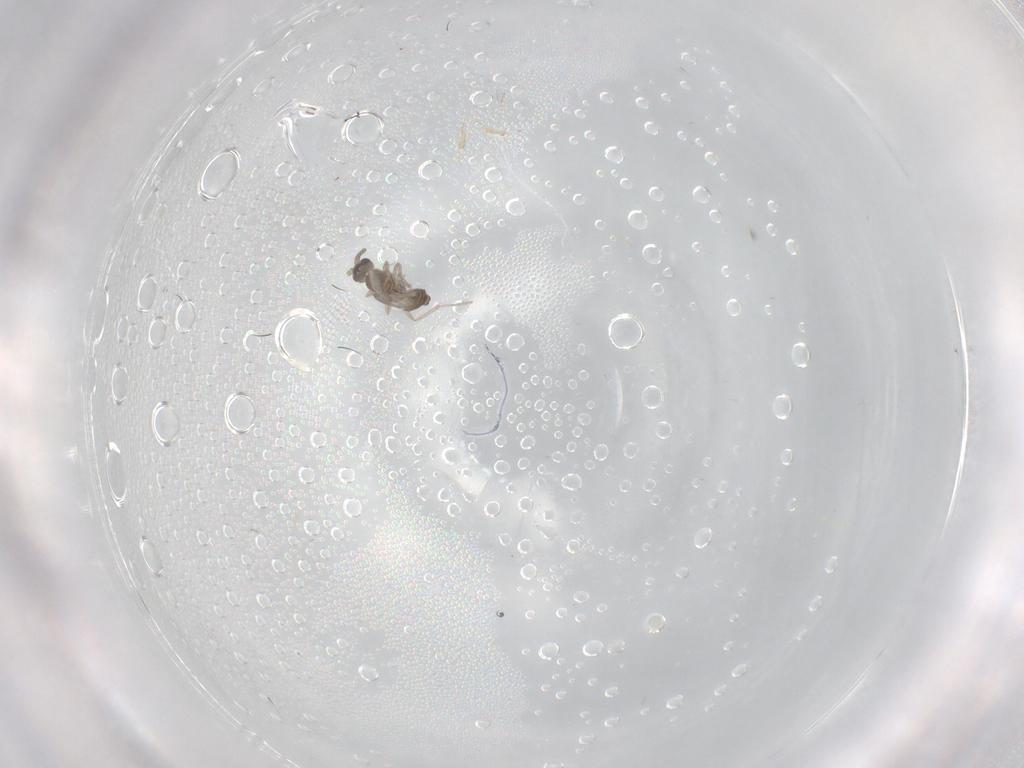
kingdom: Animalia
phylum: Arthropoda
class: Insecta
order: Diptera
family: Cecidomyiidae
